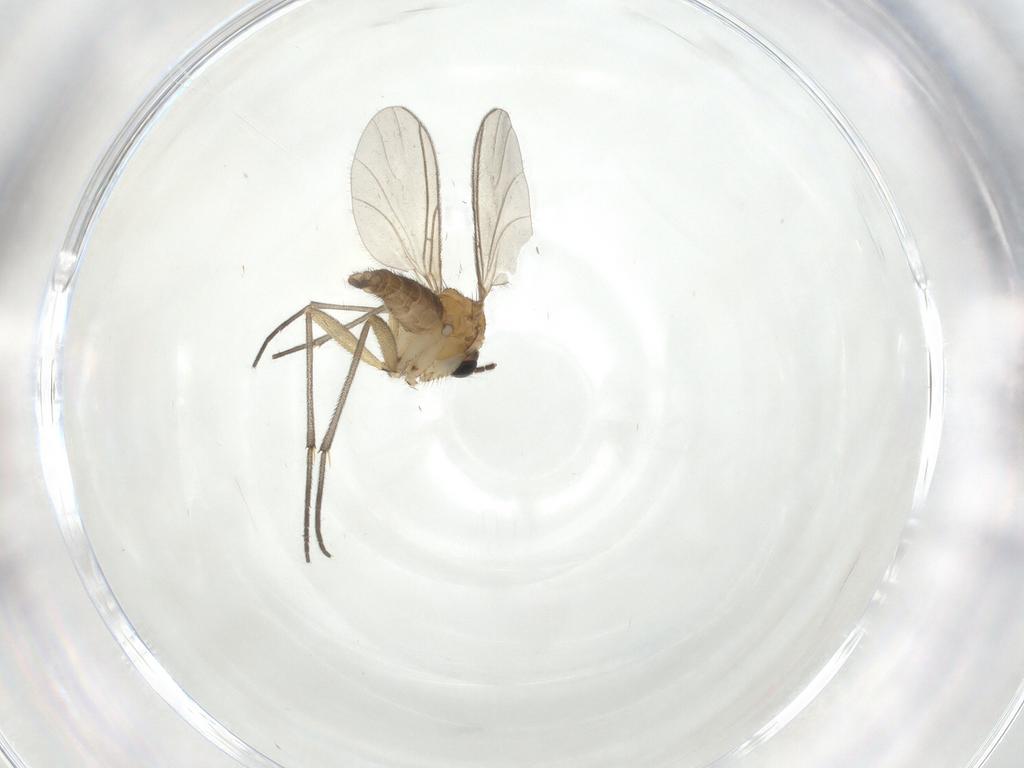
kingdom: Animalia
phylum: Arthropoda
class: Insecta
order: Diptera
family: Sciaridae
